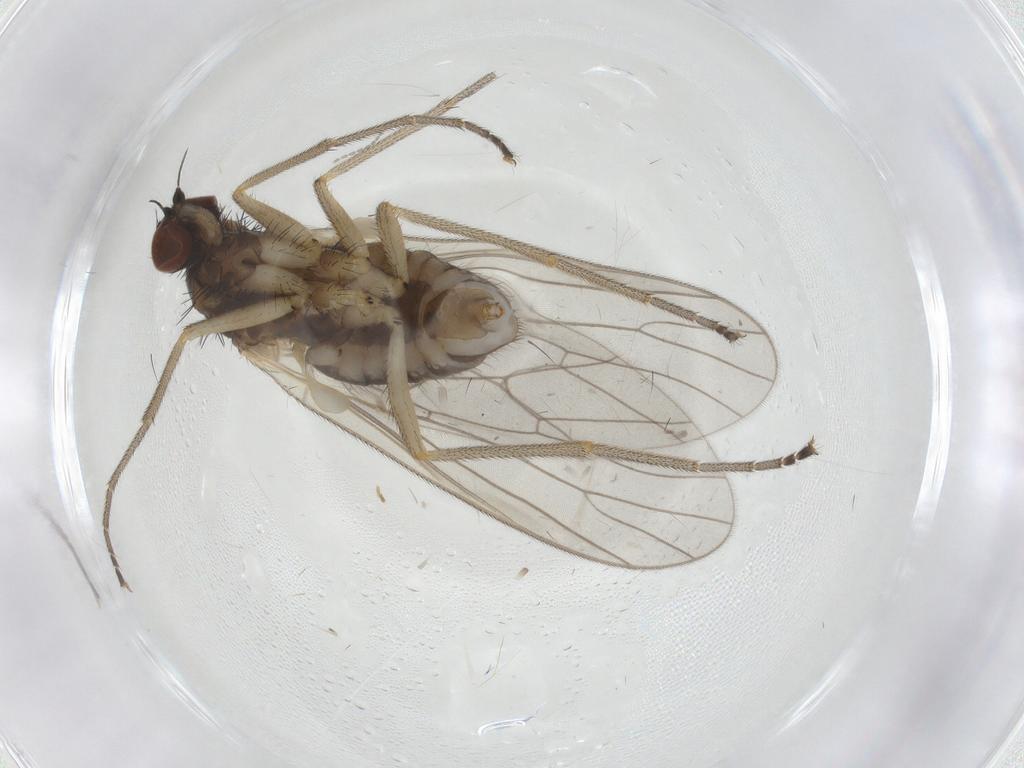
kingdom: Animalia
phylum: Arthropoda
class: Insecta
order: Diptera
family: Brachystomatidae
